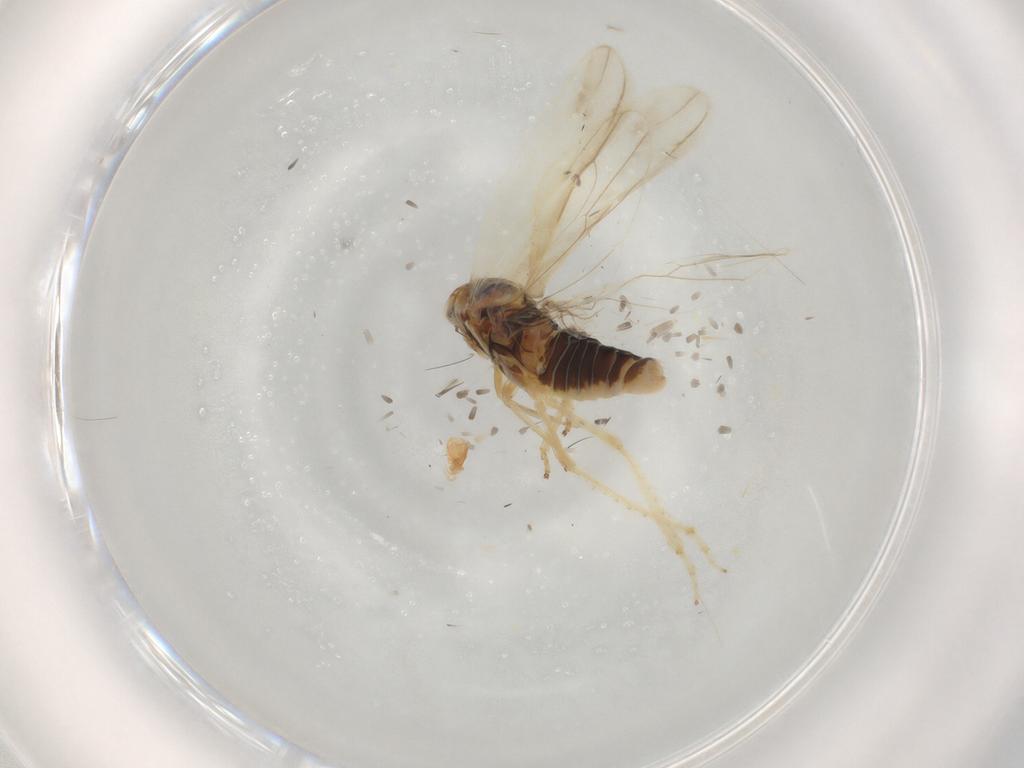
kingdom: Animalia
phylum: Arthropoda
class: Insecta
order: Hemiptera
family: Cicadellidae
